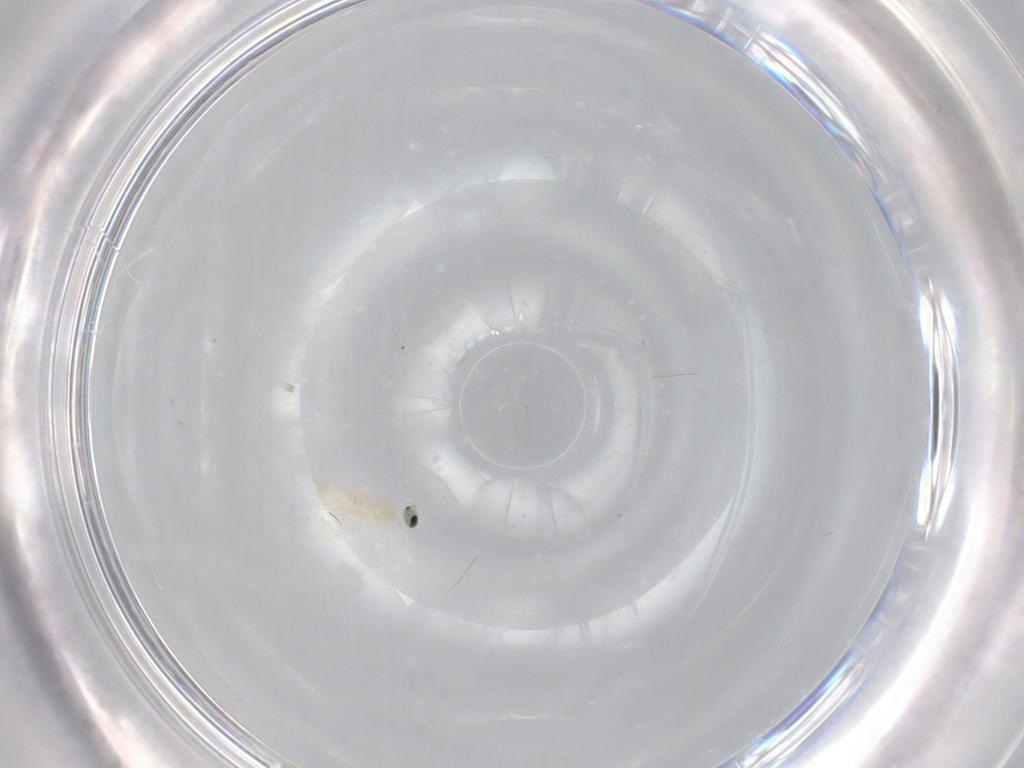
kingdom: Animalia
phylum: Arthropoda
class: Insecta
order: Diptera
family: Cecidomyiidae
